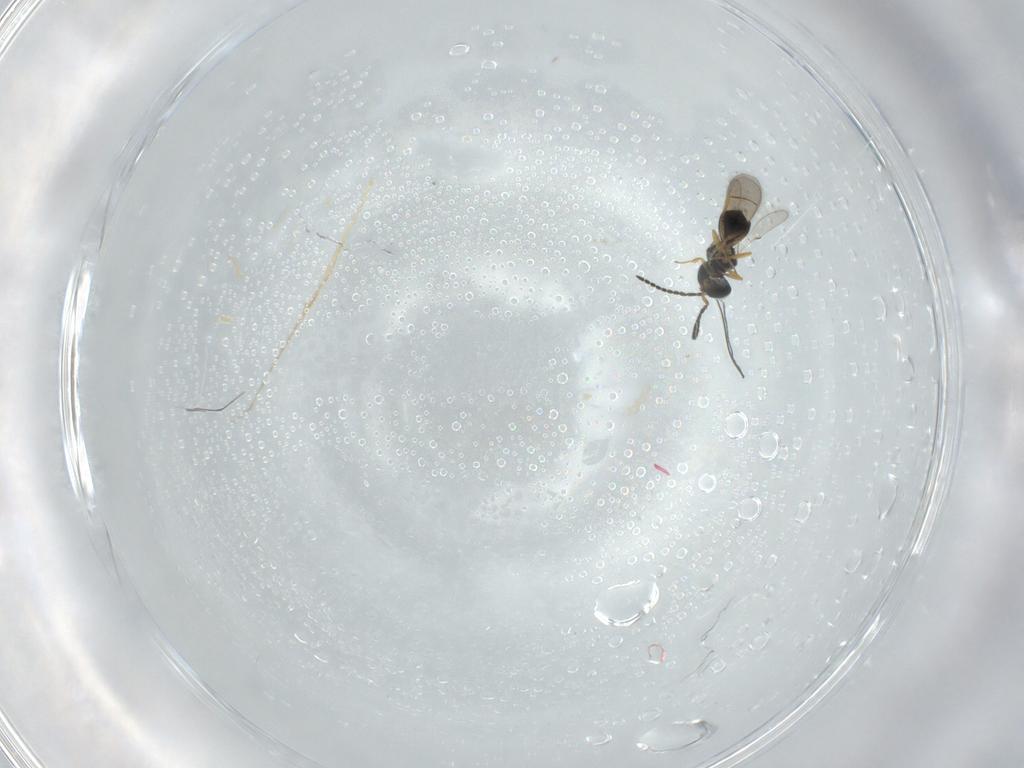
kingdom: Animalia
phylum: Arthropoda
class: Insecta
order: Hymenoptera
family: Scelionidae
